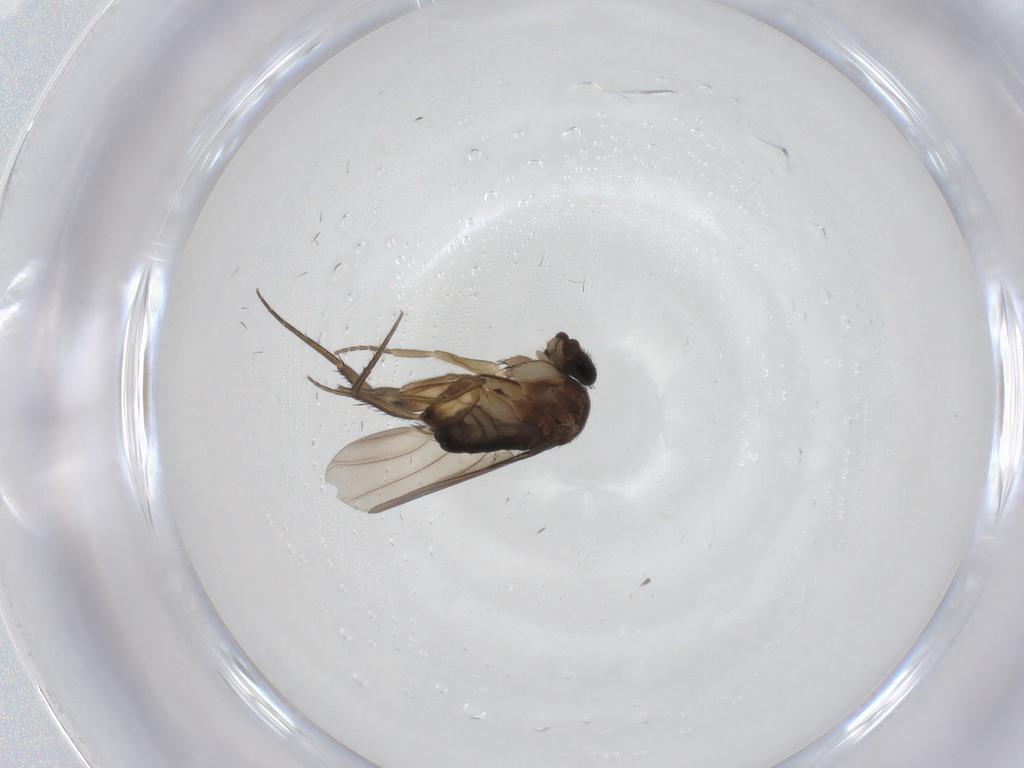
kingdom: Animalia
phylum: Arthropoda
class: Insecta
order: Diptera
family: Phoridae
